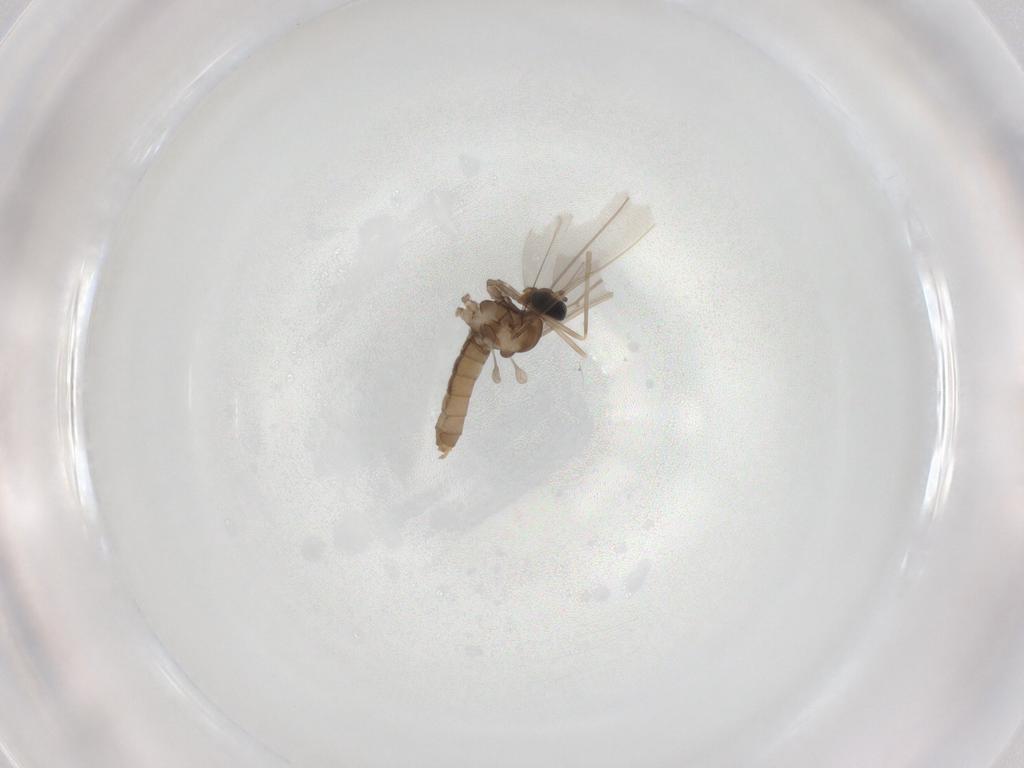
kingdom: Animalia
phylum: Arthropoda
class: Insecta
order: Diptera
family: Cecidomyiidae
